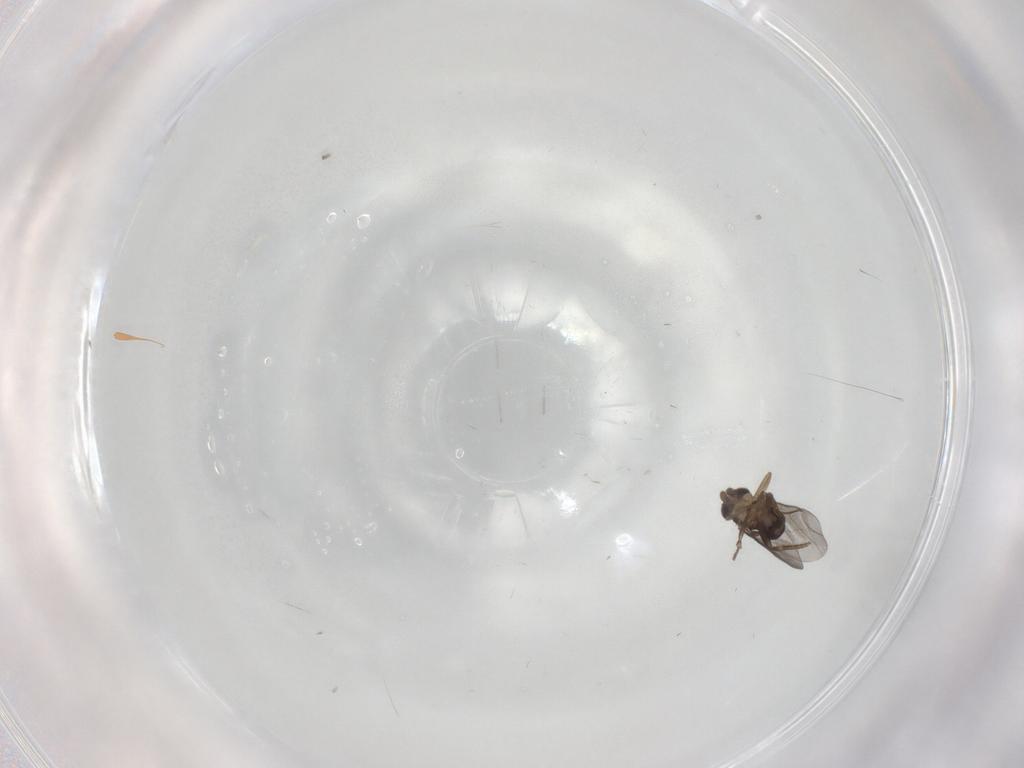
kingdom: Animalia
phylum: Arthropoda
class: Insecta
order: Diptera
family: Cecidomyiidae
